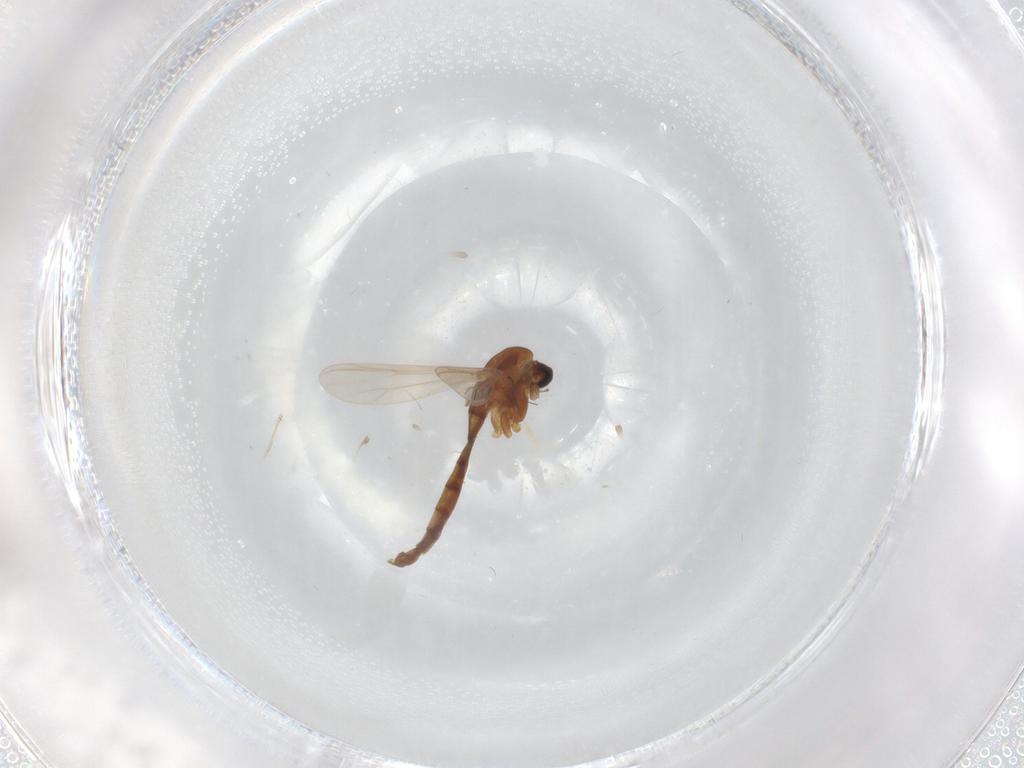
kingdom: Animalia
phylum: Arthropoda
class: Insecta
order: Diptera
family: Chironomidae
